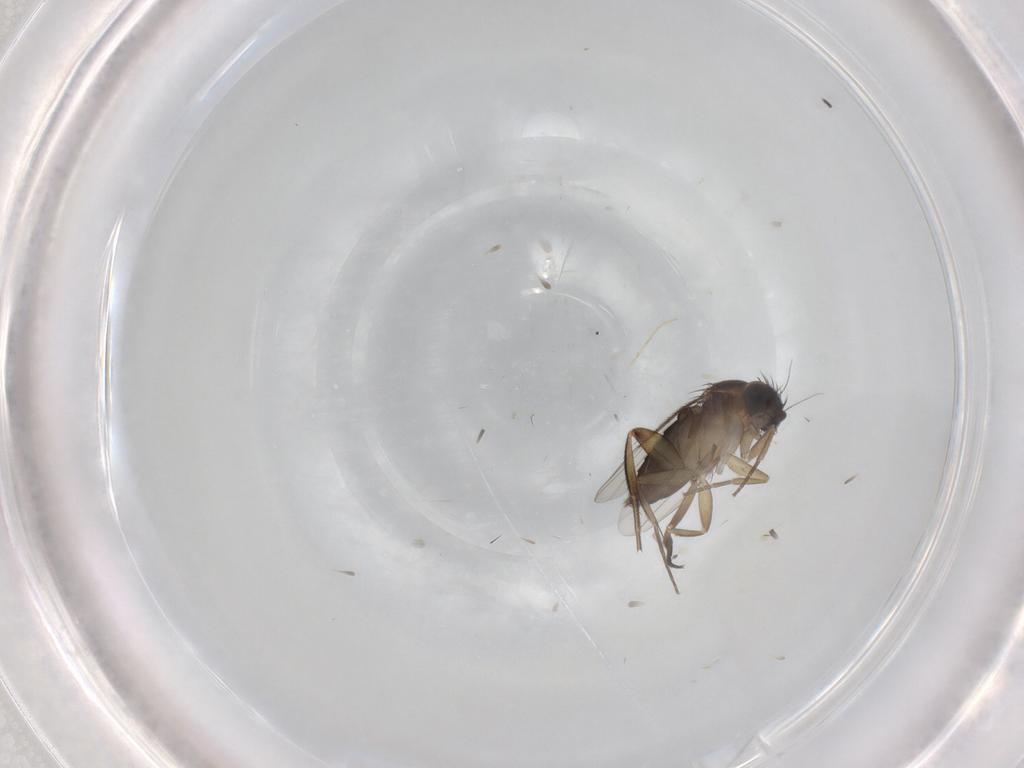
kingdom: Animalia
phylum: Arthropoda
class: Insecta
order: Diptera
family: Phoridae
